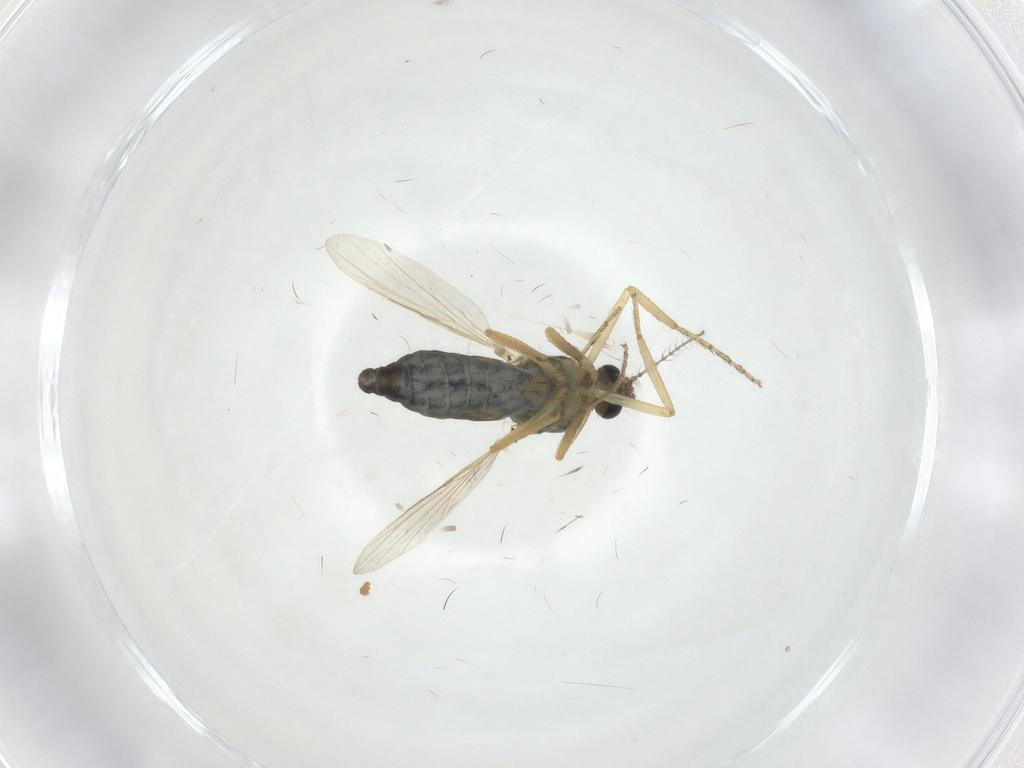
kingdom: Animalia
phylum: Arthropoda
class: Insecta
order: Diptera
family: Ceratopogonidae
